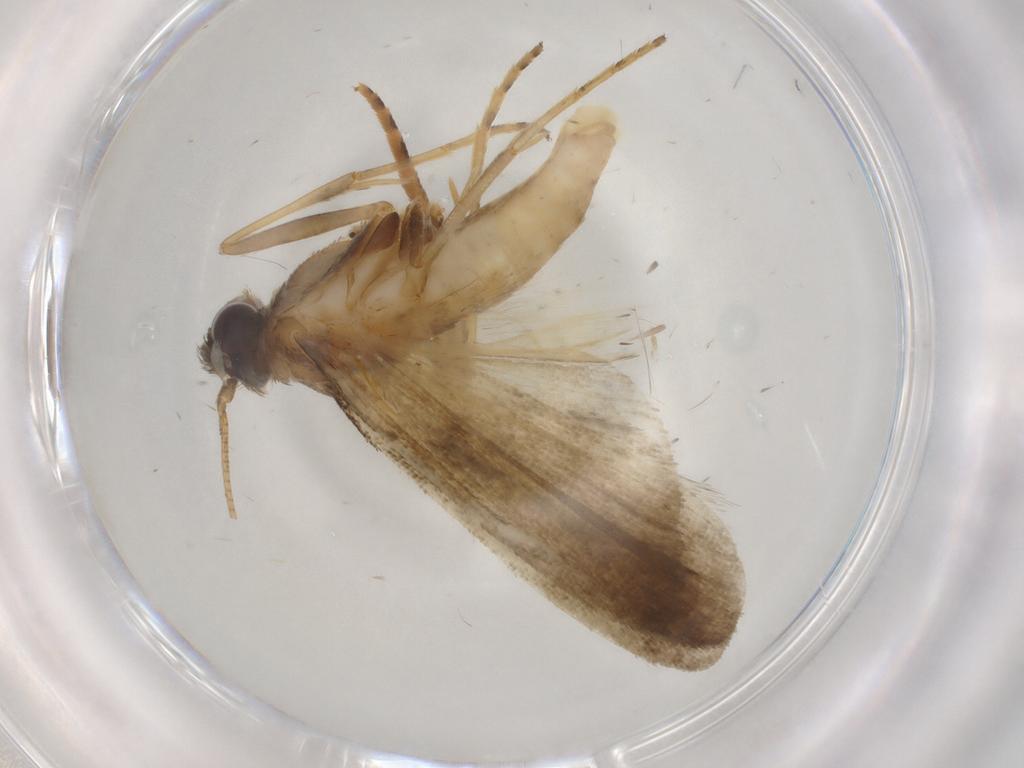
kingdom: Animalia
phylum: Arthropoda
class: Insecta
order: Lepidoptera
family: Noctuidae
